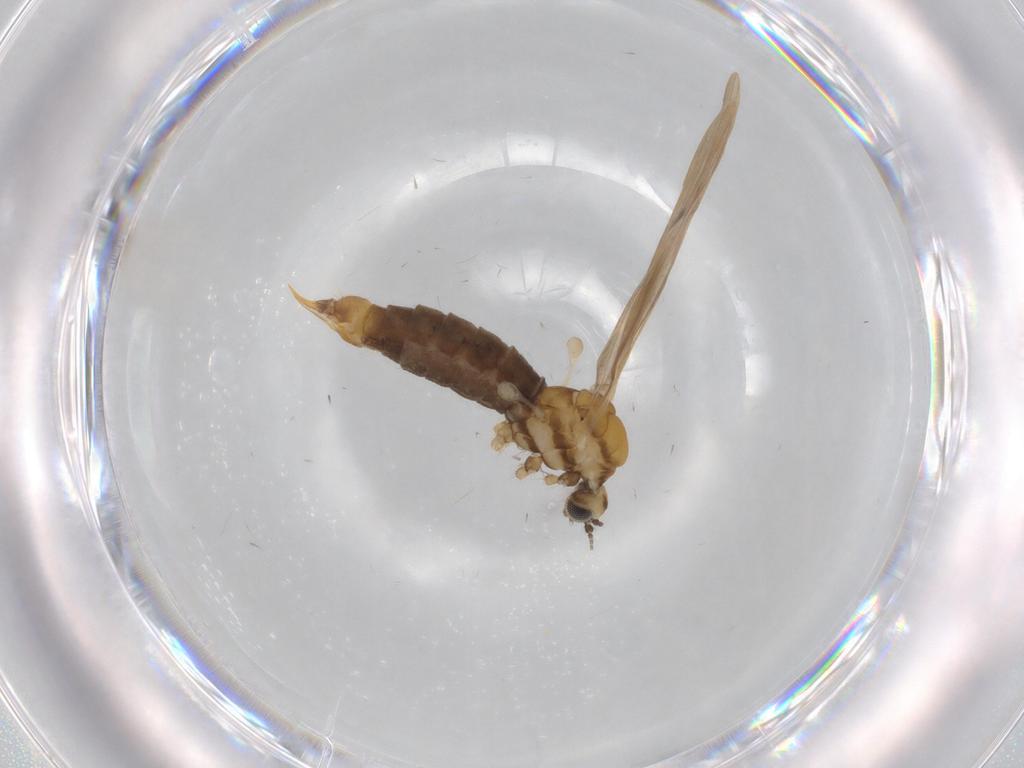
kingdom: Animalia
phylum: Arthropoda
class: Insecta
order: Diptera
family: Limoniidae
